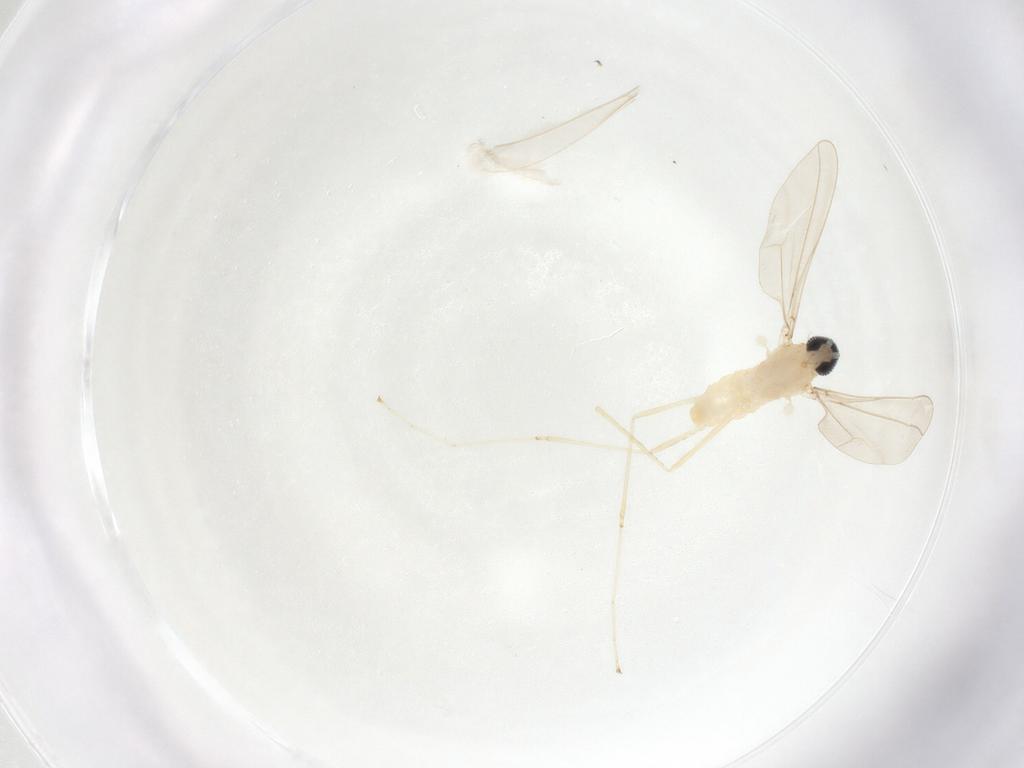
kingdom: Animalia
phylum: Arthropoda
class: Insecta
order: Diptera
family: Cecidomyiidae
